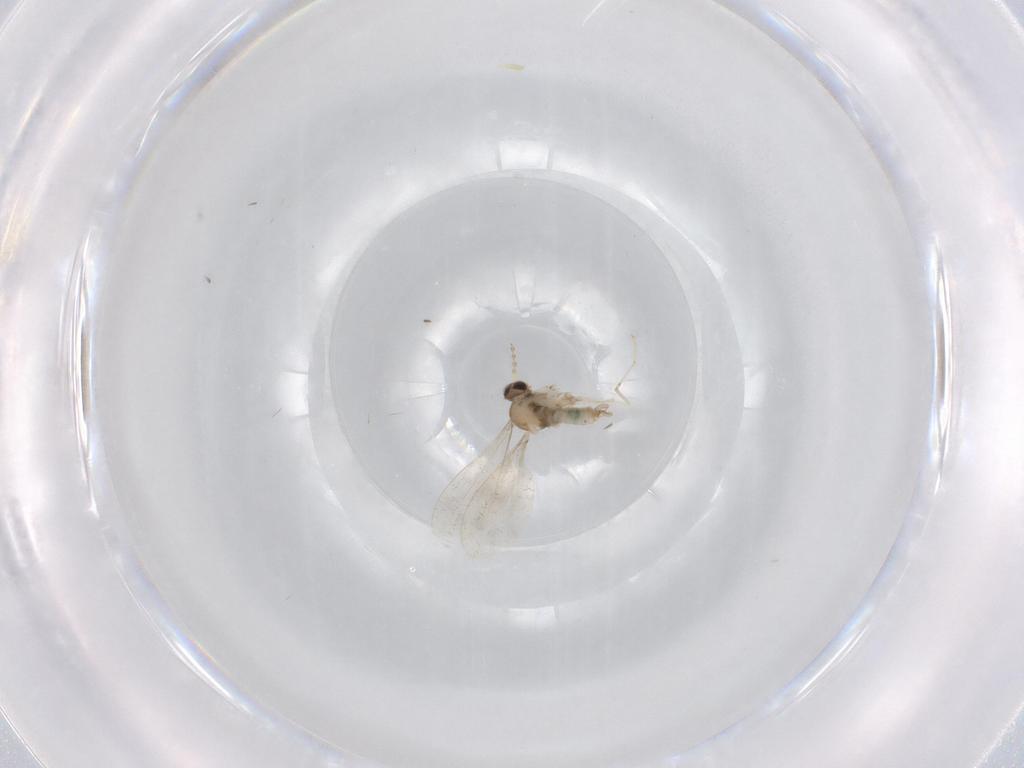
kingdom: Animalia
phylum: Arthropoda
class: Insecta
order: Diptera
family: Cecidomyiidae
